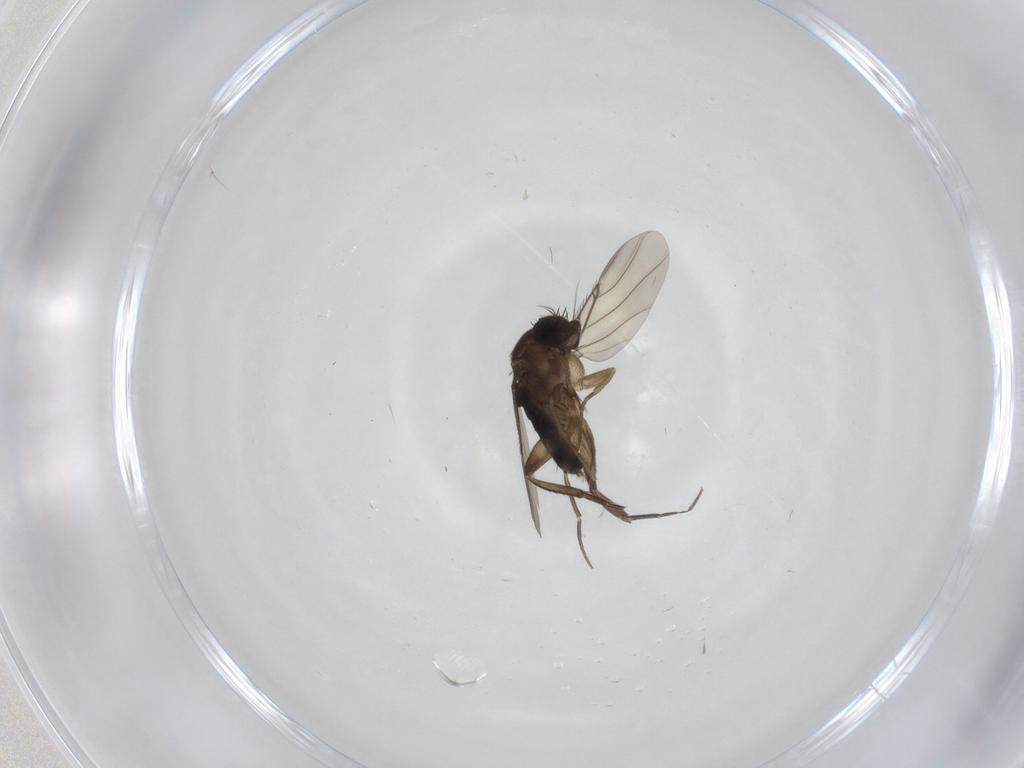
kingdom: Animalia
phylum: Arthropoda
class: Insecta
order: Diptera
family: Phoridae
